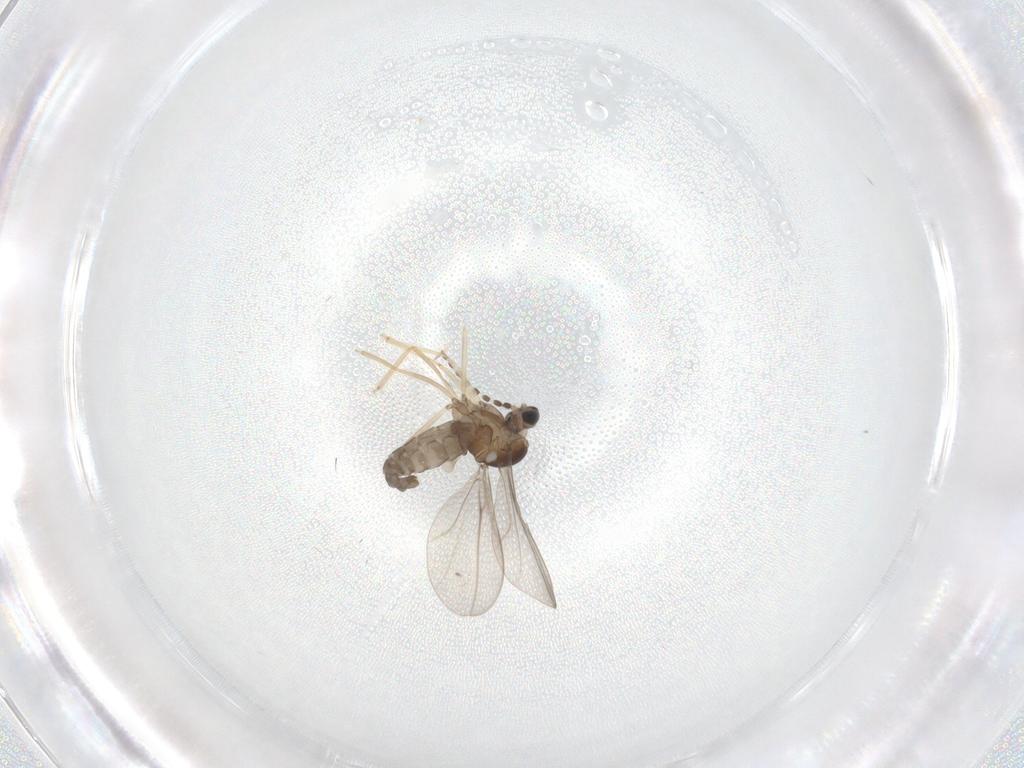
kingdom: Animalia
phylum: Arthropoda
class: Insecta
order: Diptera
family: Cecidomyiidae
